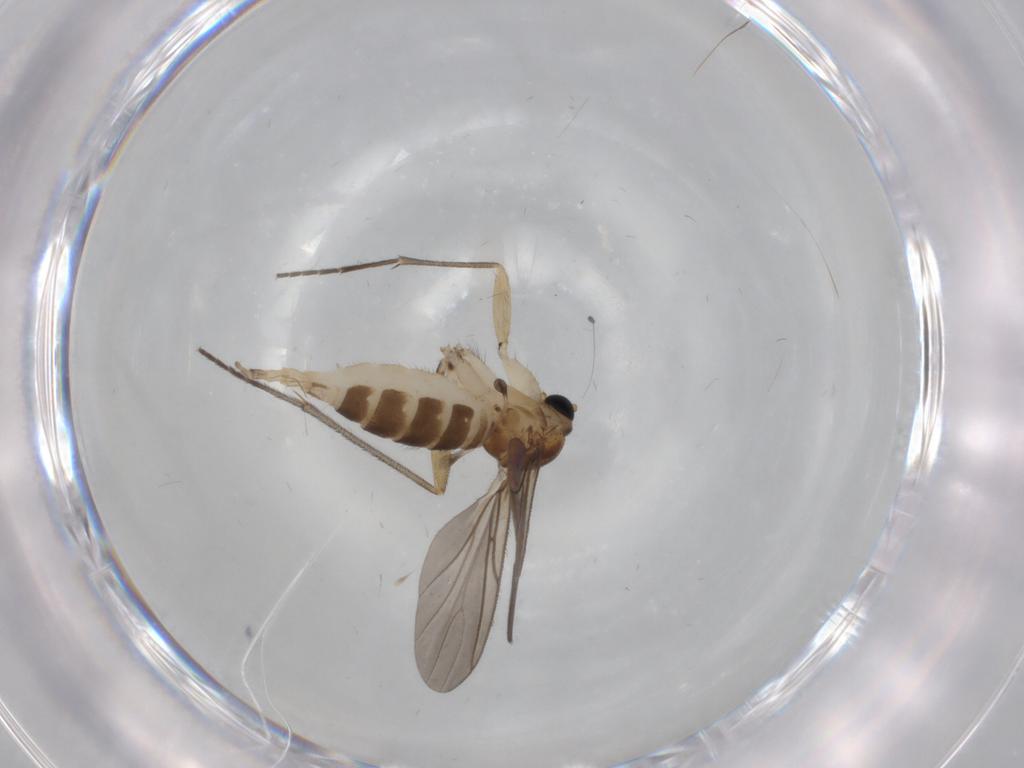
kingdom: Animalia
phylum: Arthropoda
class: Insecta
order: Diptera
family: Sciaridae
